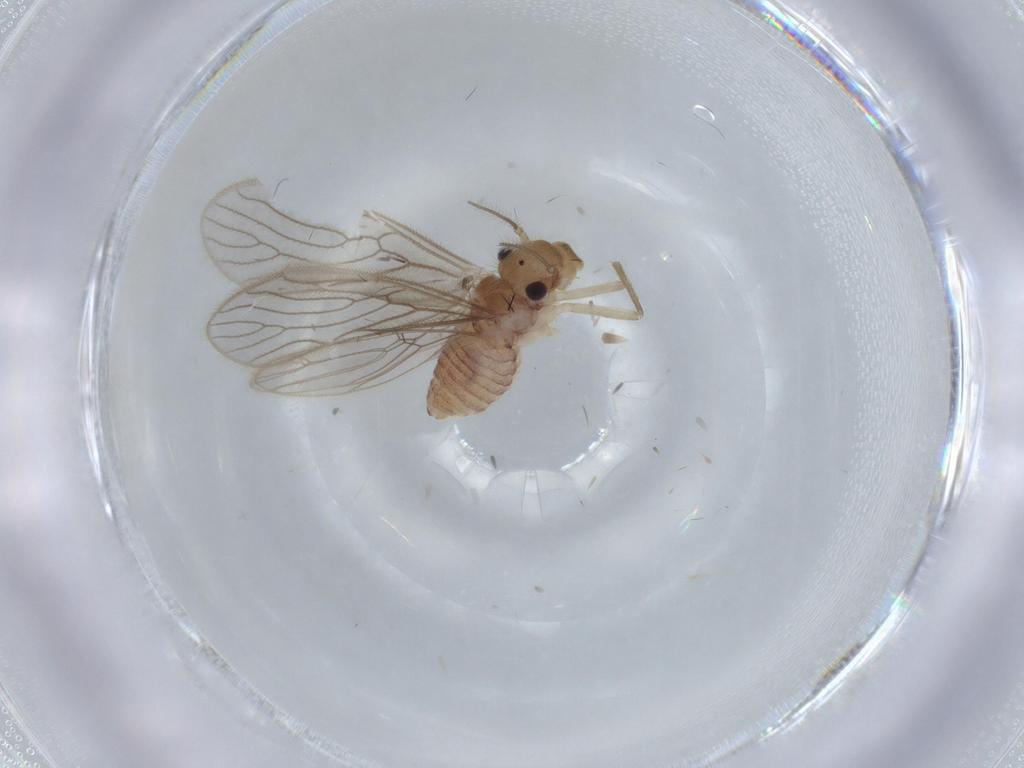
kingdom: Animalia
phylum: Arthropoda
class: Insecta
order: Psocodea
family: Cladiopsocidae
